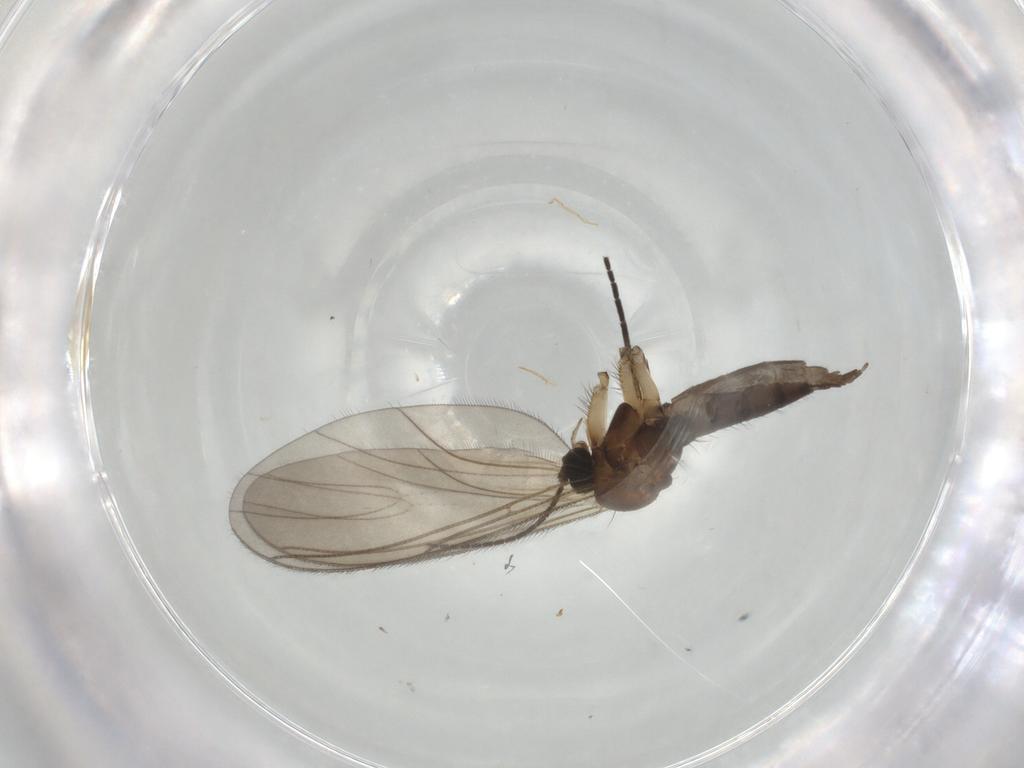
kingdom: Animalia
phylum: Arthropoda
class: Insecta
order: Diptera
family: Sciaridae
